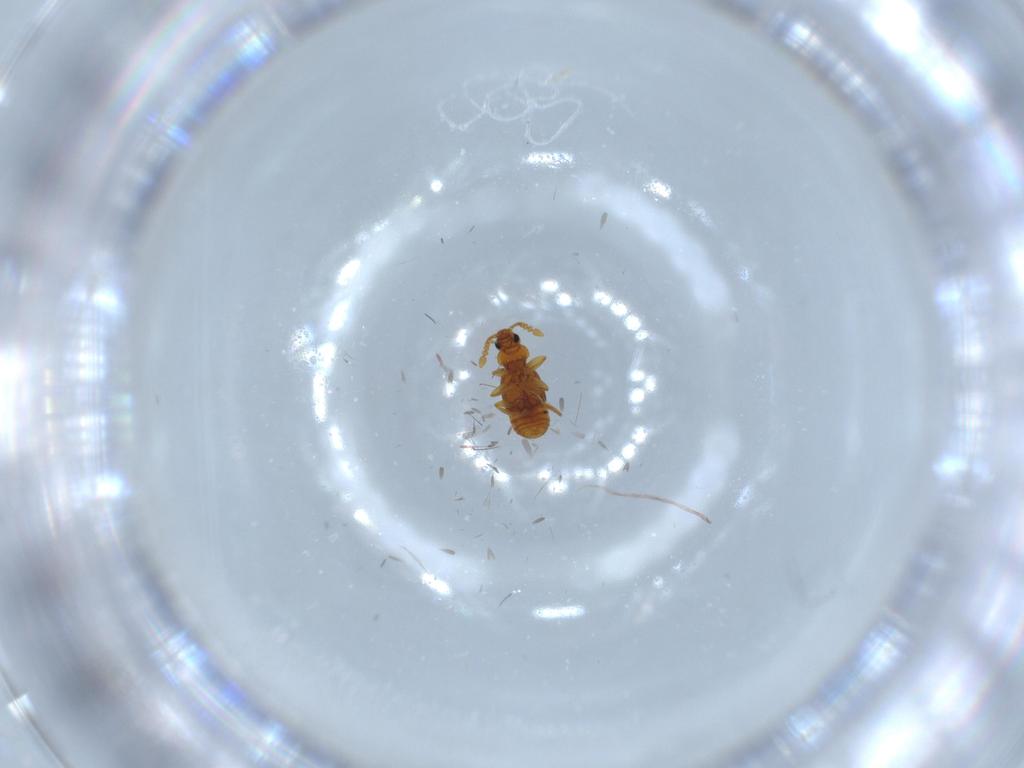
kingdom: Animalia
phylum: Arthropoda
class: Insecta
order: Coleoptera
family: Staphylinidae
